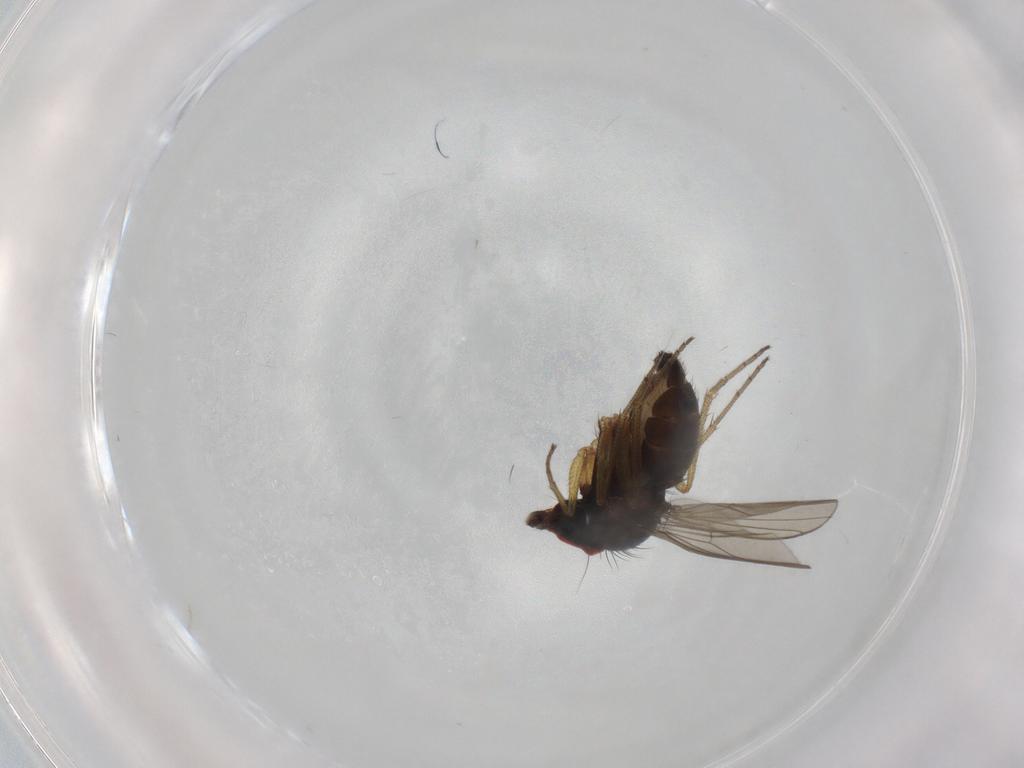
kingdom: Animalia
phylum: Arthropoda
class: Insecta
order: Diptera
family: Dolichopodidae
